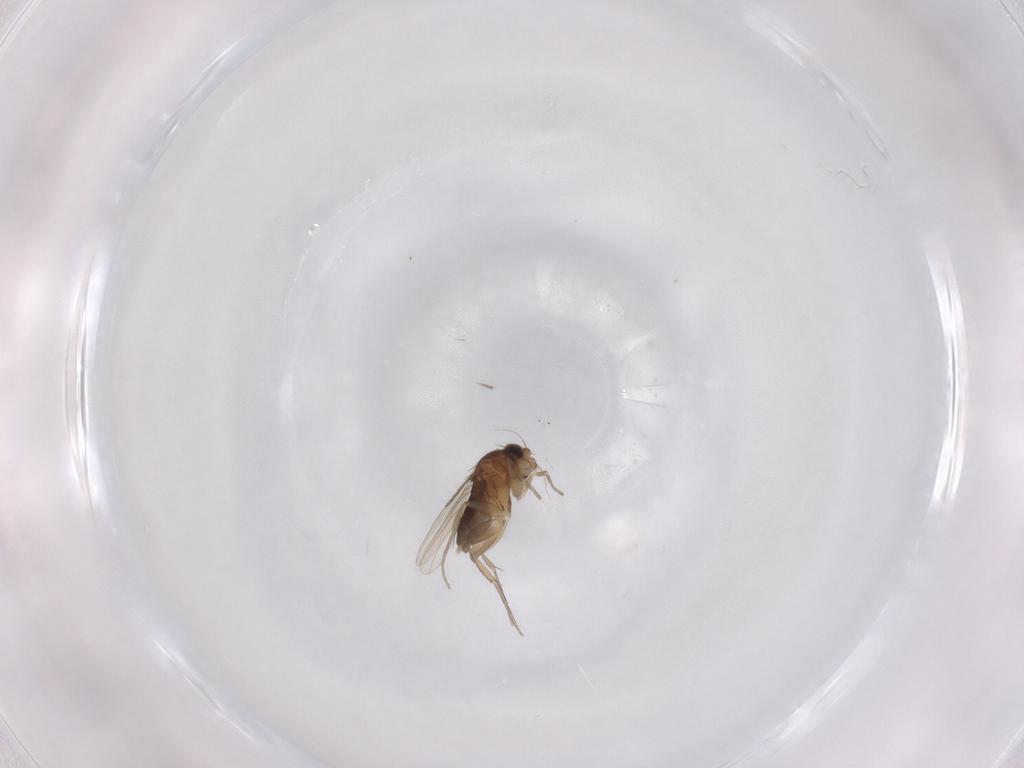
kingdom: Animalia
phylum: Arthropoda
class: Insecta
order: Diptera
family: Phoridae
